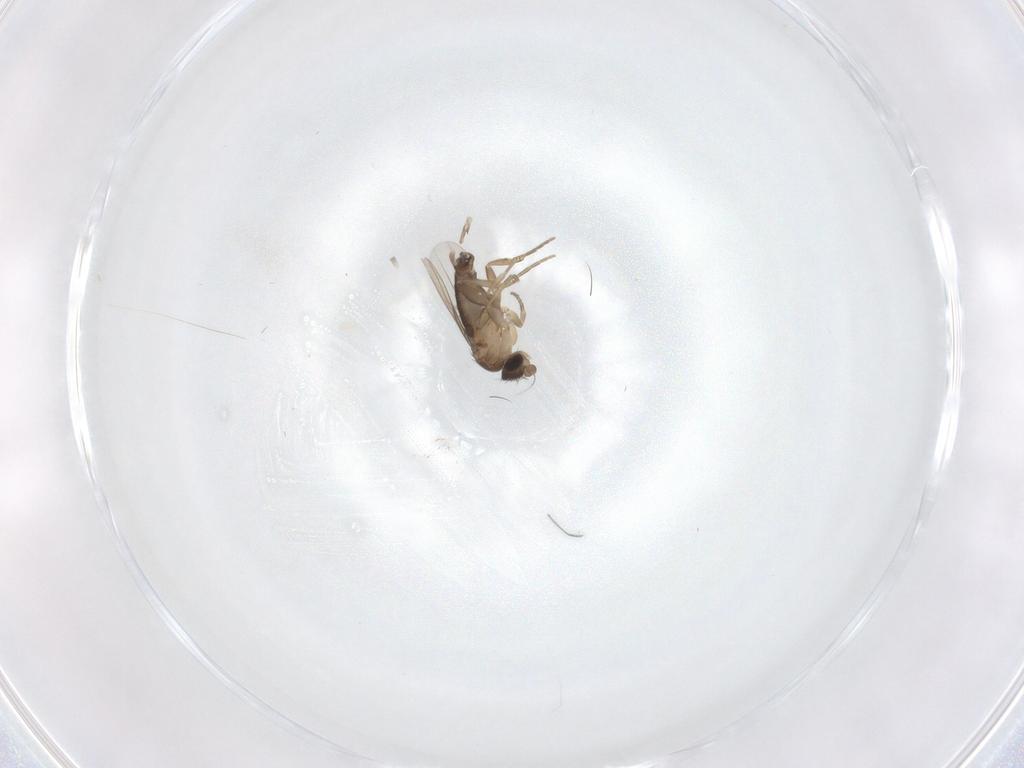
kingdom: Animalia
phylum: Arthropoda
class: Insecta
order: Diptera
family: Phoridae
